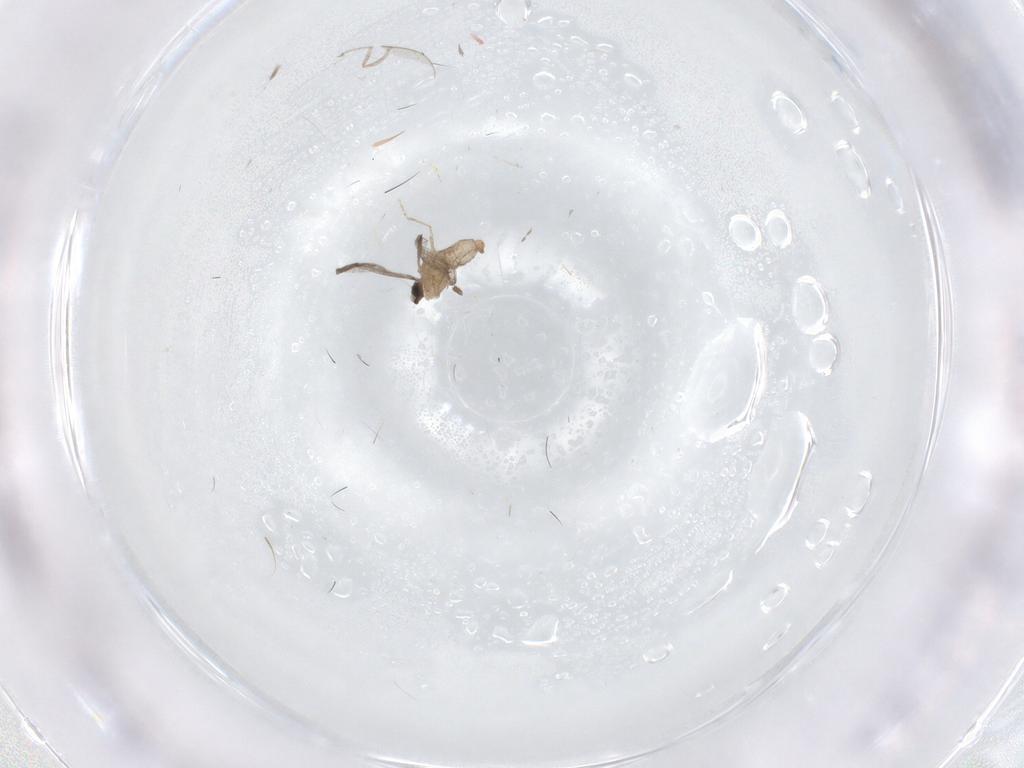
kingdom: Animalia
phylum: Arthropoda
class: Insecta
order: Diptera
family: Cecidomyiidae
